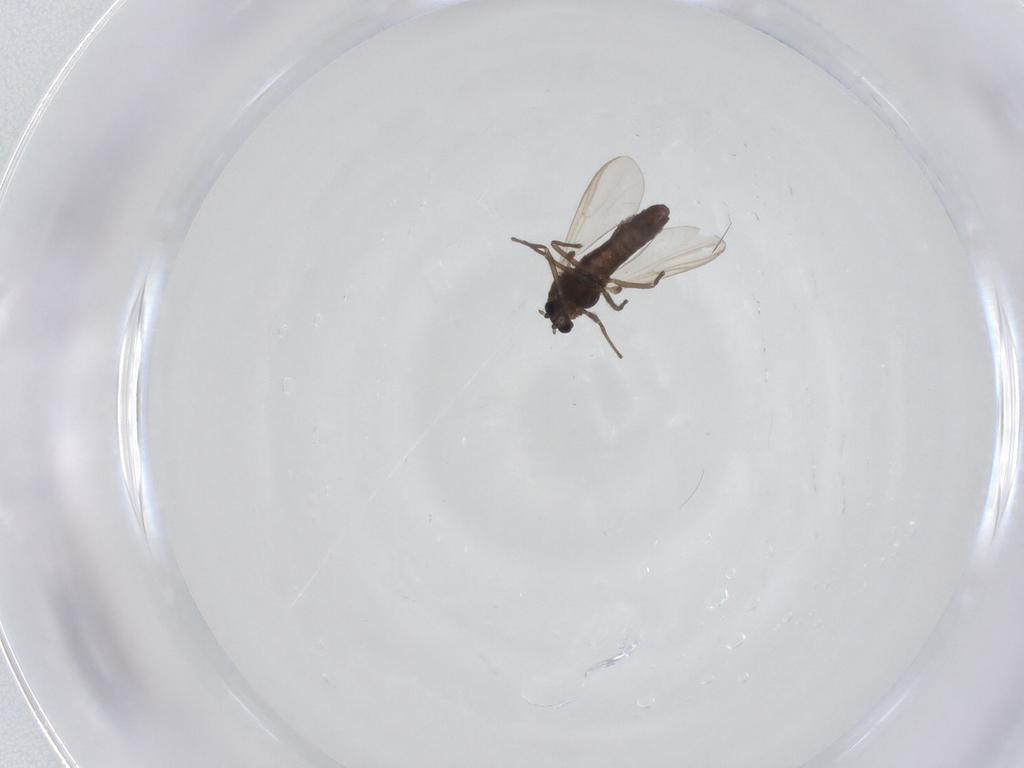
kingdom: Animalia
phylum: Arthropoda
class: Insecta
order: Diptera
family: Chironomidae
